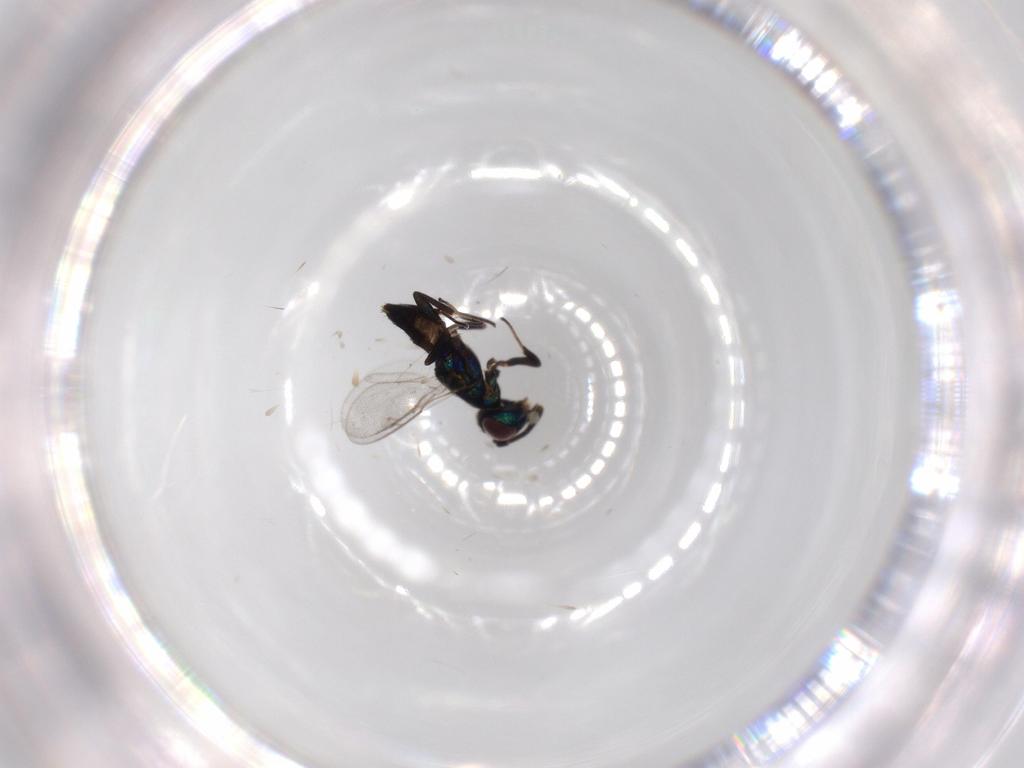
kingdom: Animalia
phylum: Arthropoda
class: Insecta
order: Hymenoptera
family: Eupelmidae
